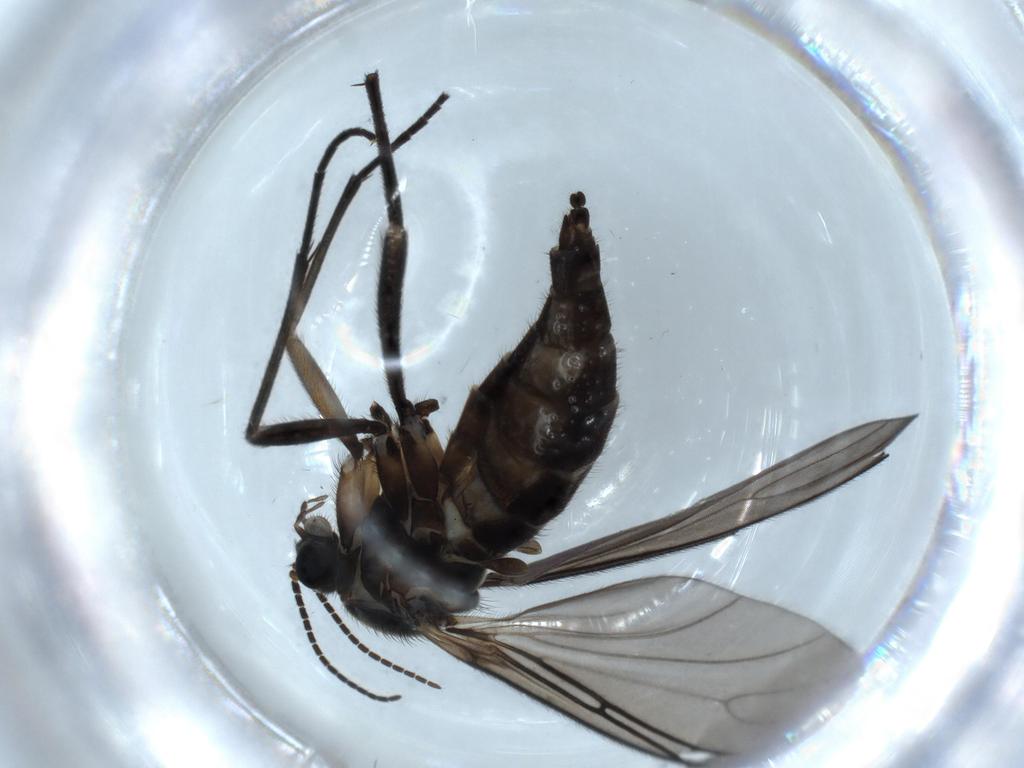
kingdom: Animalia
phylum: Arthropoda
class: Insecta
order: Diptera
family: Sciaridae
